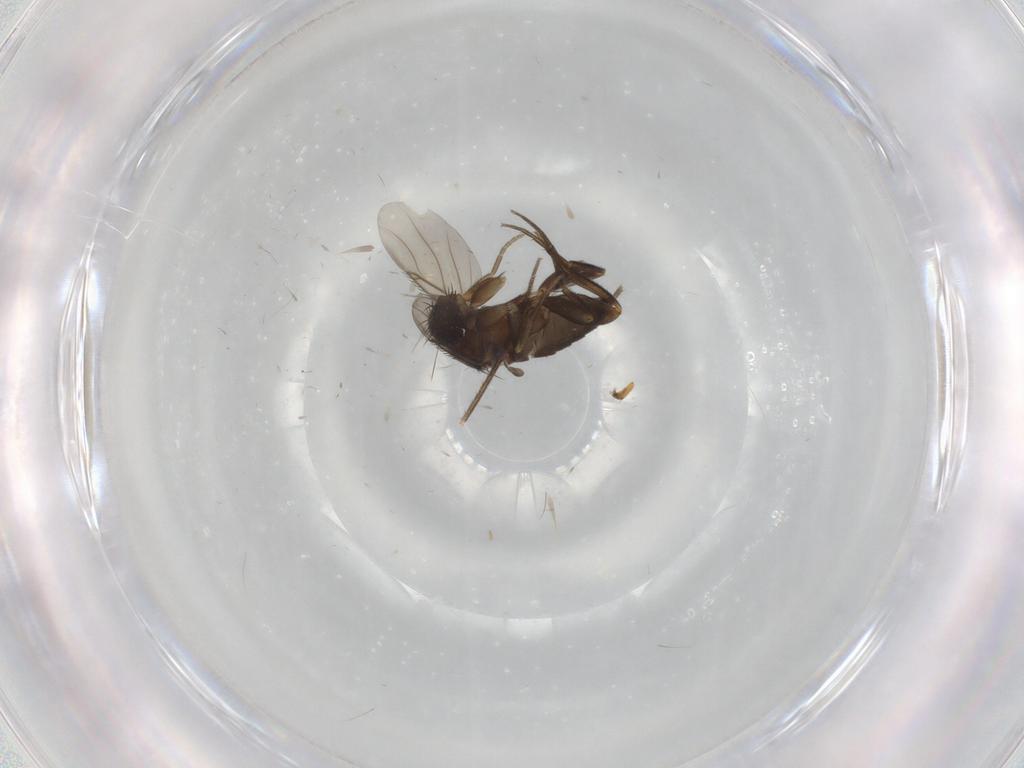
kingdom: Animalia
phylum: Arthropoda
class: Insecta
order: Diptera
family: Phoridae
